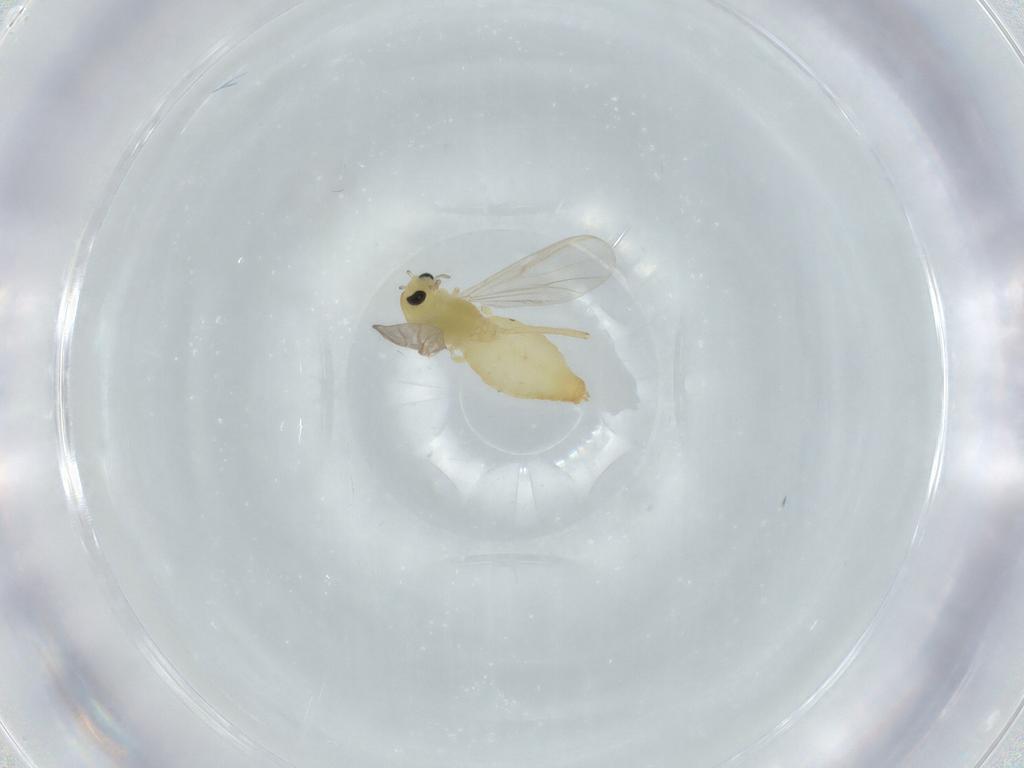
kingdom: Animalia
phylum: Arthropoda
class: Insecta
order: Diptera
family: Chironomidae
